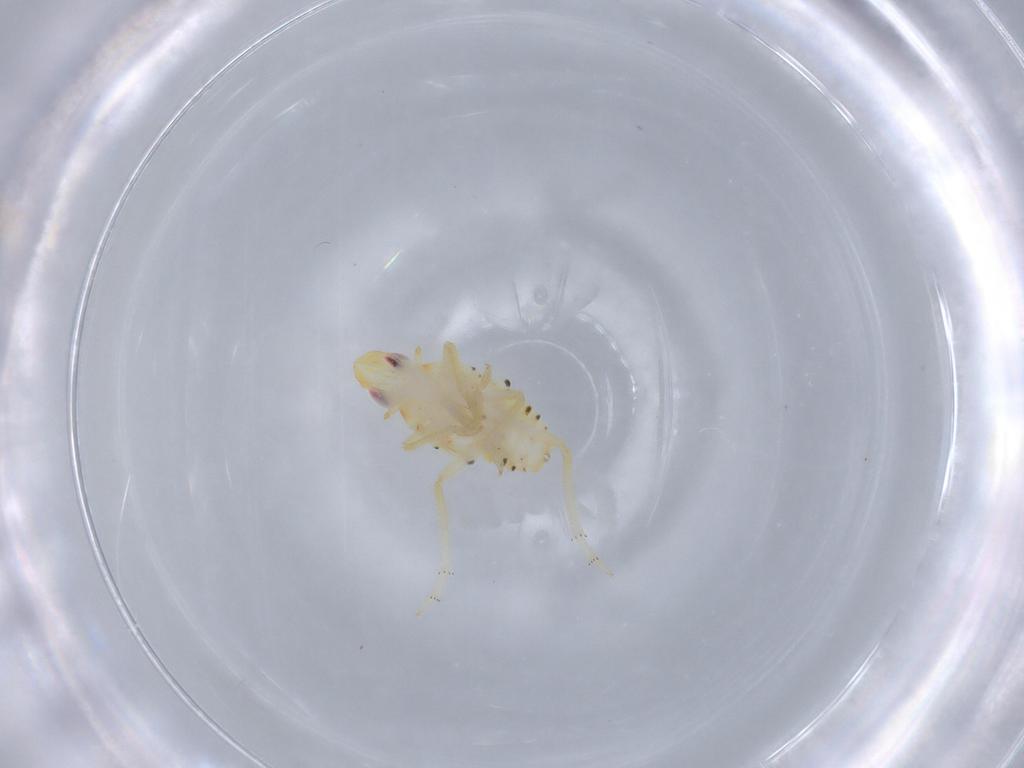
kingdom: Animalia
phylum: Arthropoda
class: Insecta
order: Hemiptera
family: Tropiduchidae
